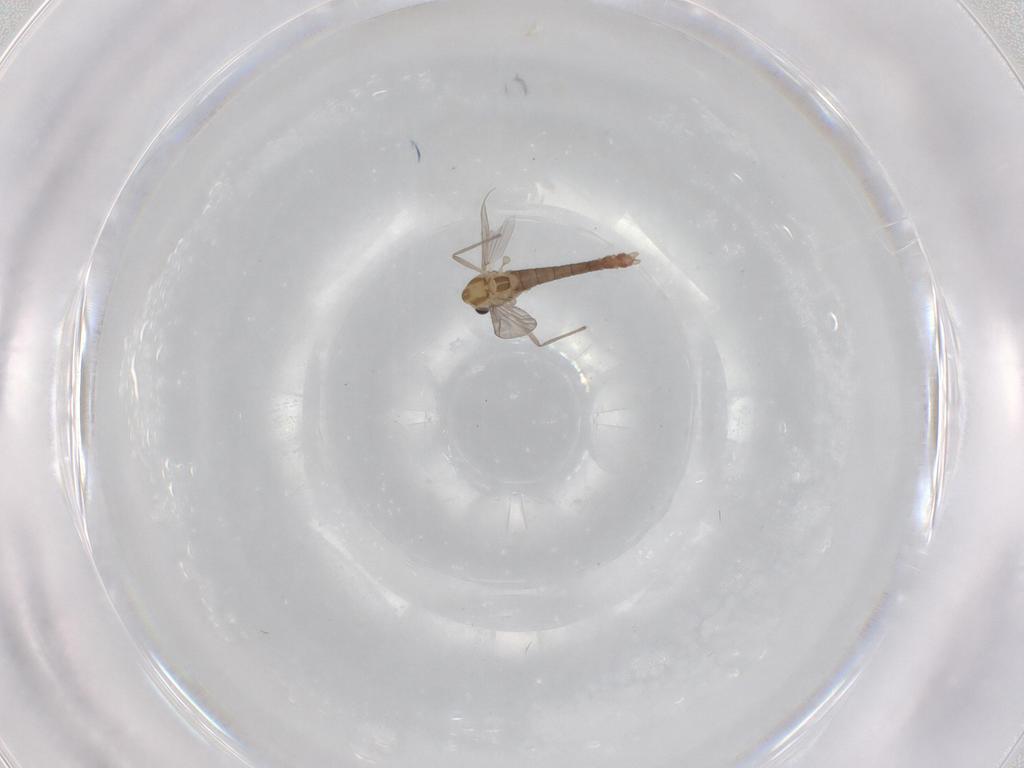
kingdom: Animalia
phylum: Arthropoda
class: Insecta
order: Diptera
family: Chironomidae
